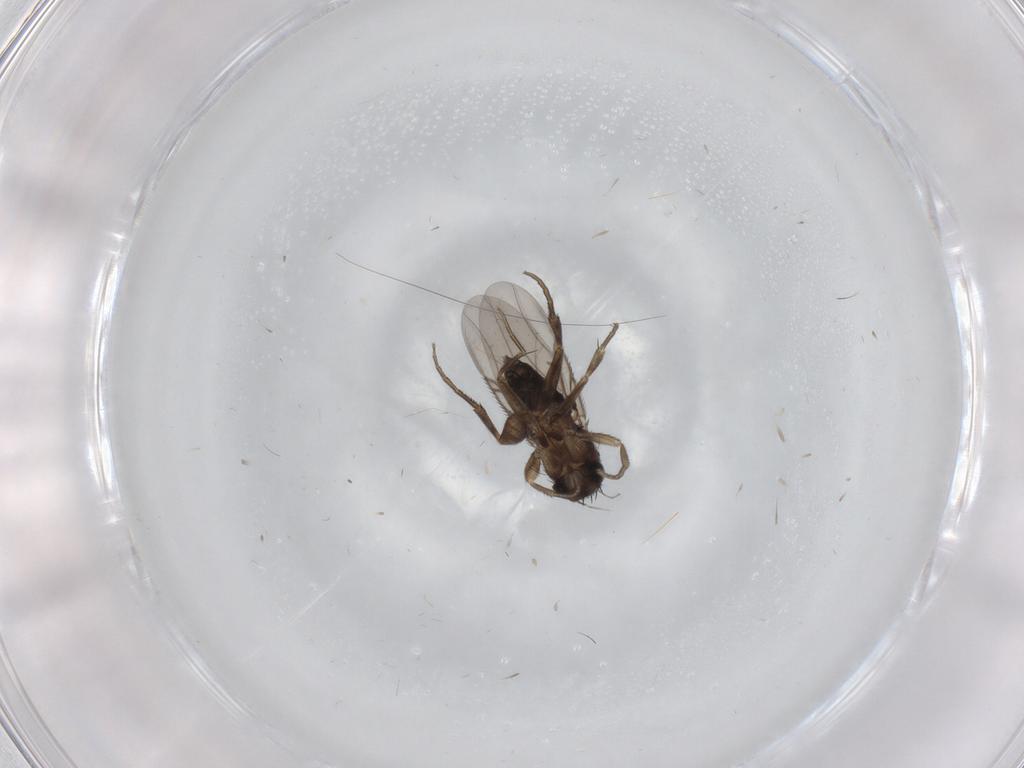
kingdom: Animalia
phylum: Arthropoda
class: Insecta
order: Diptera
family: Phoridae
